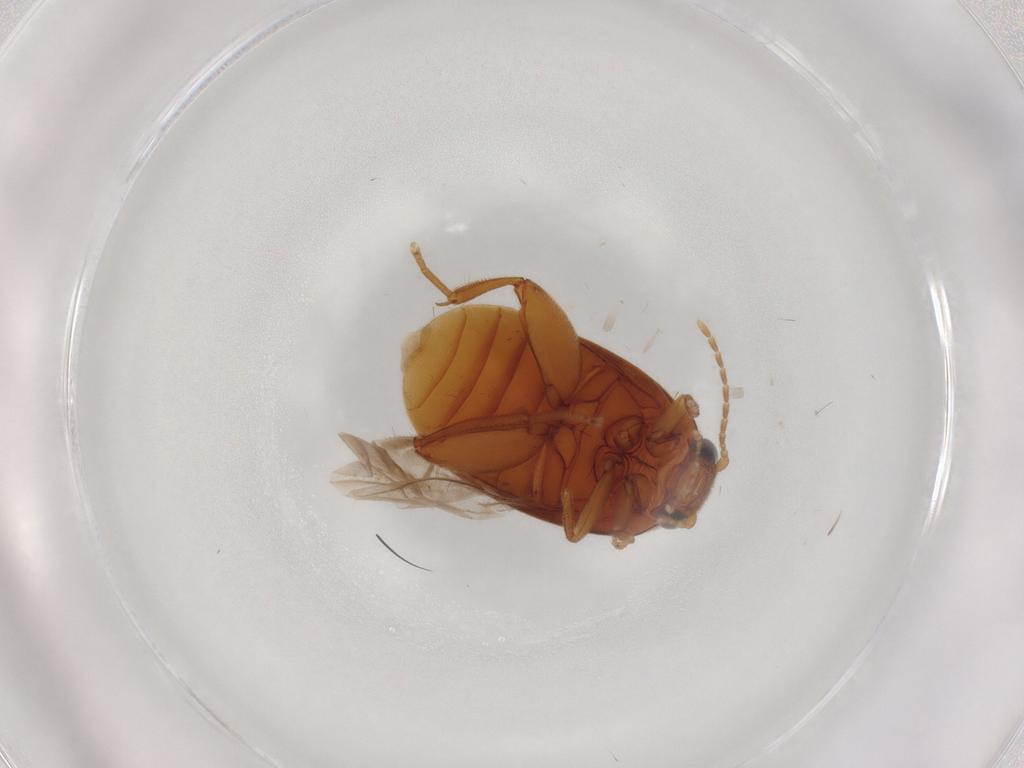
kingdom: Animalia
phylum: Arthropoda
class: Insecta
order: Coleoptera
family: Scirtidae
